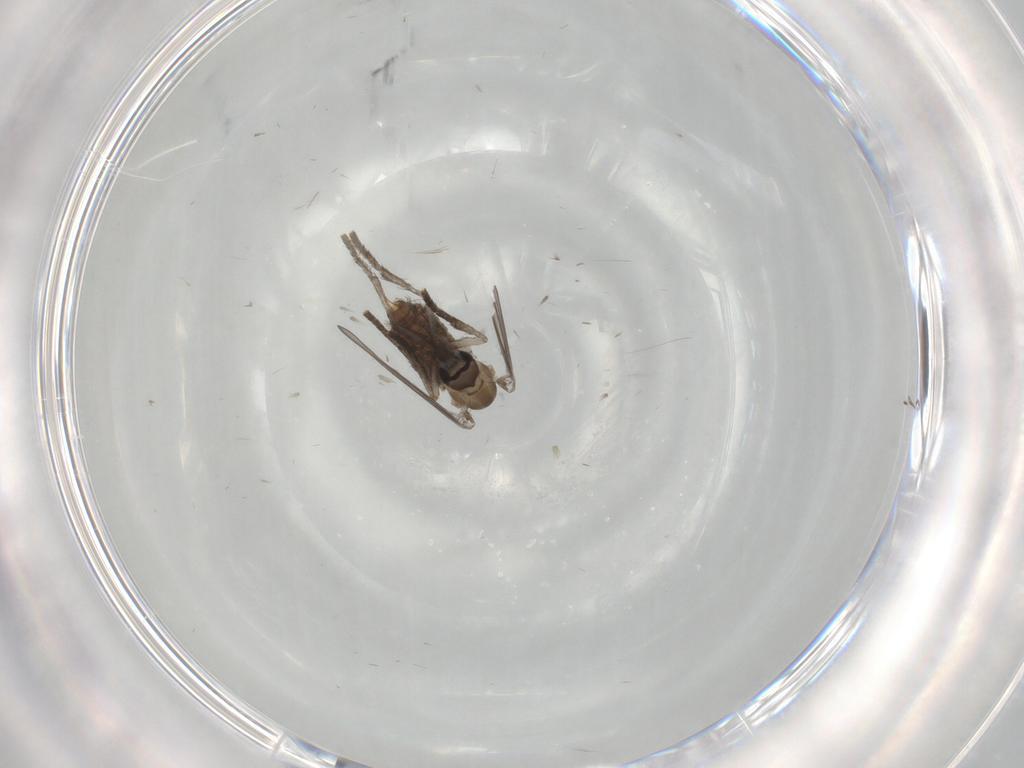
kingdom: Animalia
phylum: Arthropoda
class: Insecta
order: Diptera
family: Psychodidae
